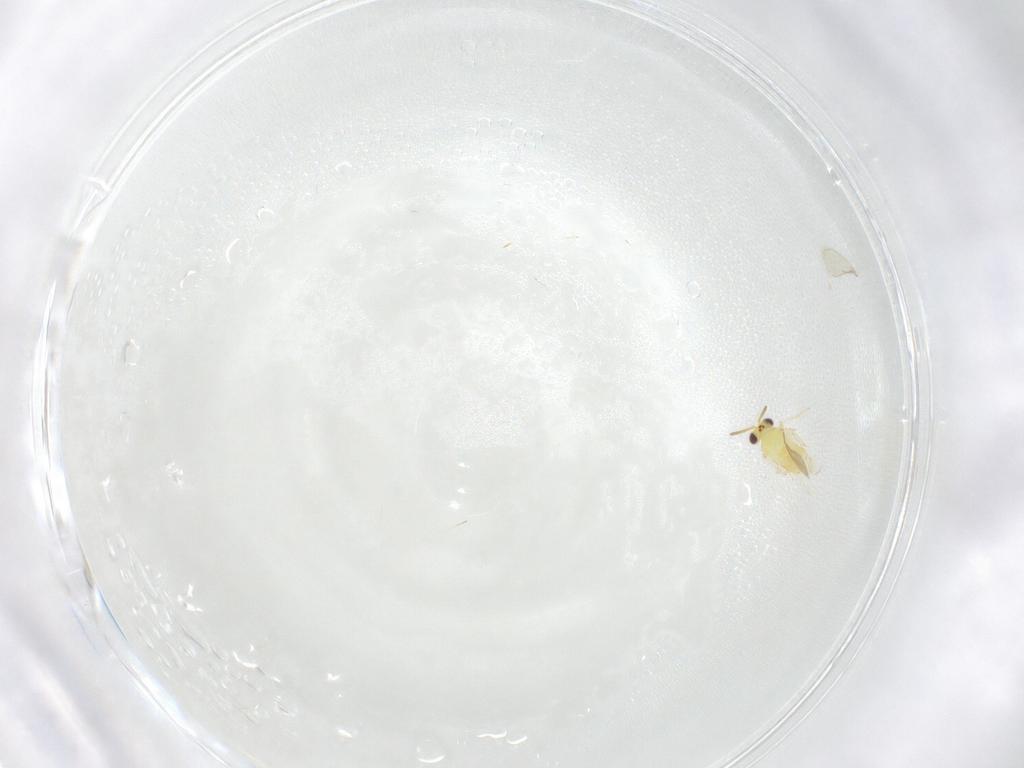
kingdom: Animalia
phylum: Arthropoda
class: Insecta
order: Hymenoptera
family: Aphelinidae
